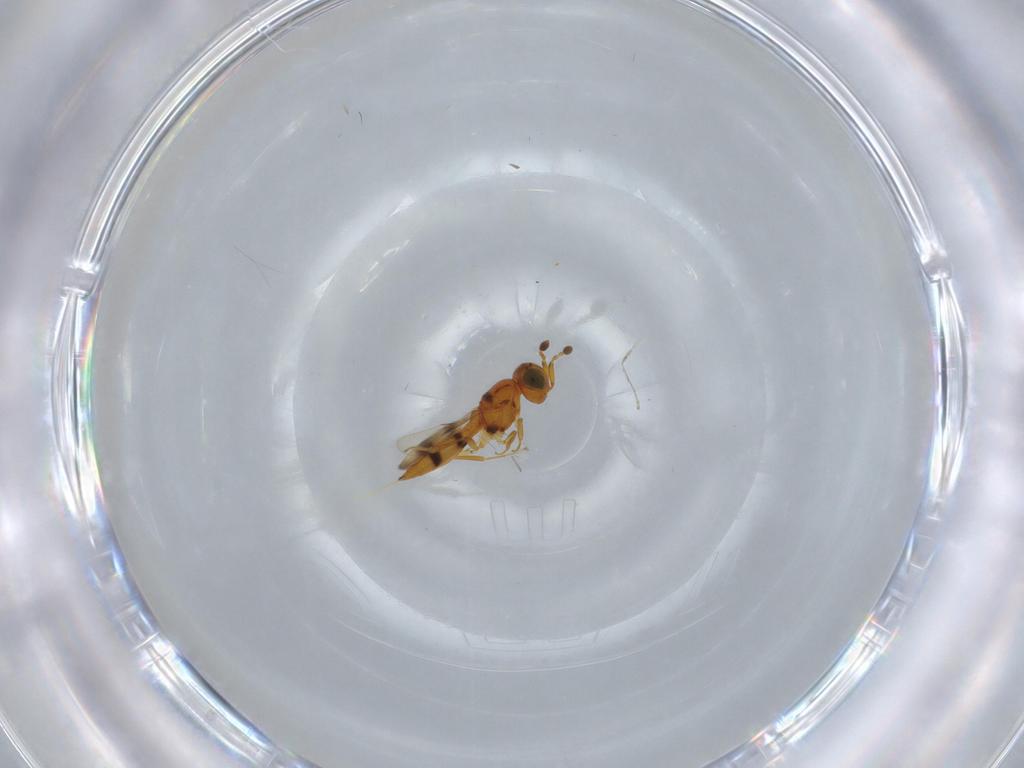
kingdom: Animalia
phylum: Arthropoda
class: Insecta
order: Hymenoptera
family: Scelionidae
